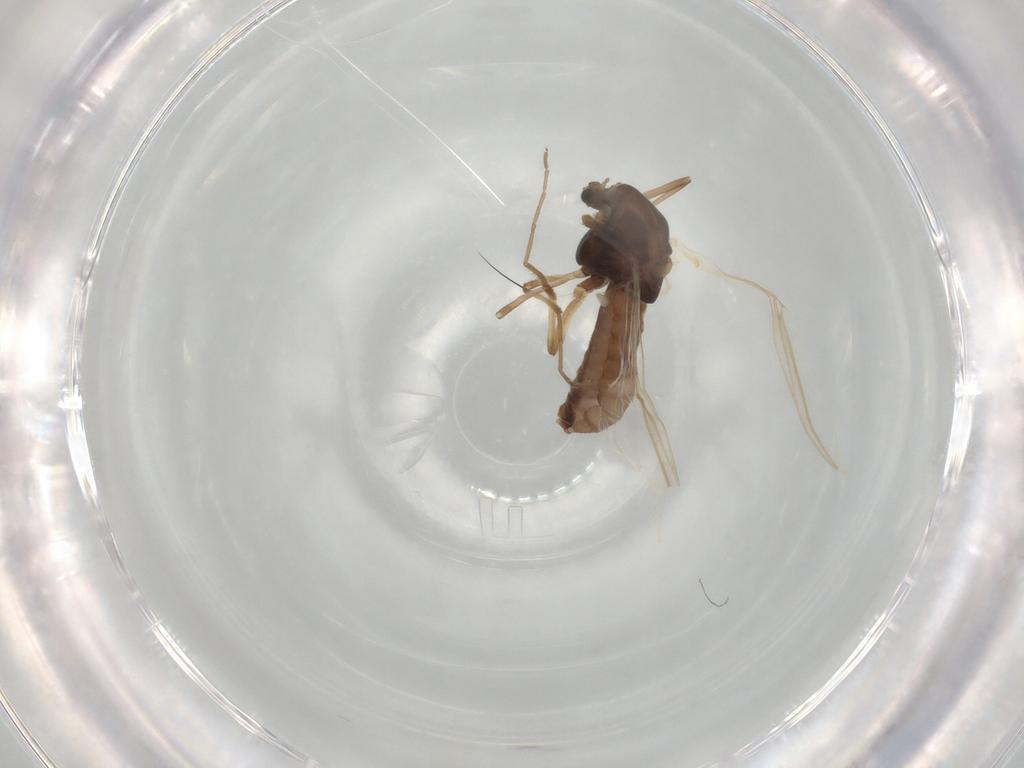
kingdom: Animalia
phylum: Arthropoda
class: Insecta
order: Diptera
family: Chironomidae
